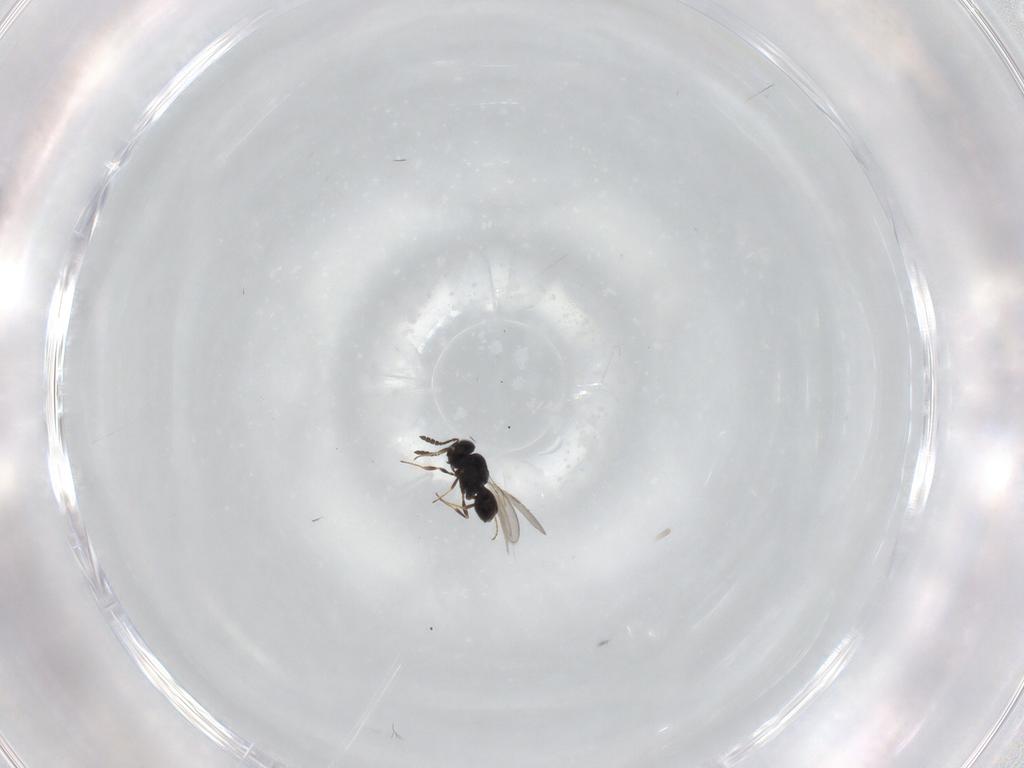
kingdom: Animalia
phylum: Arthropoda
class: Insecta
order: Hymenoptera
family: Scelionidae
